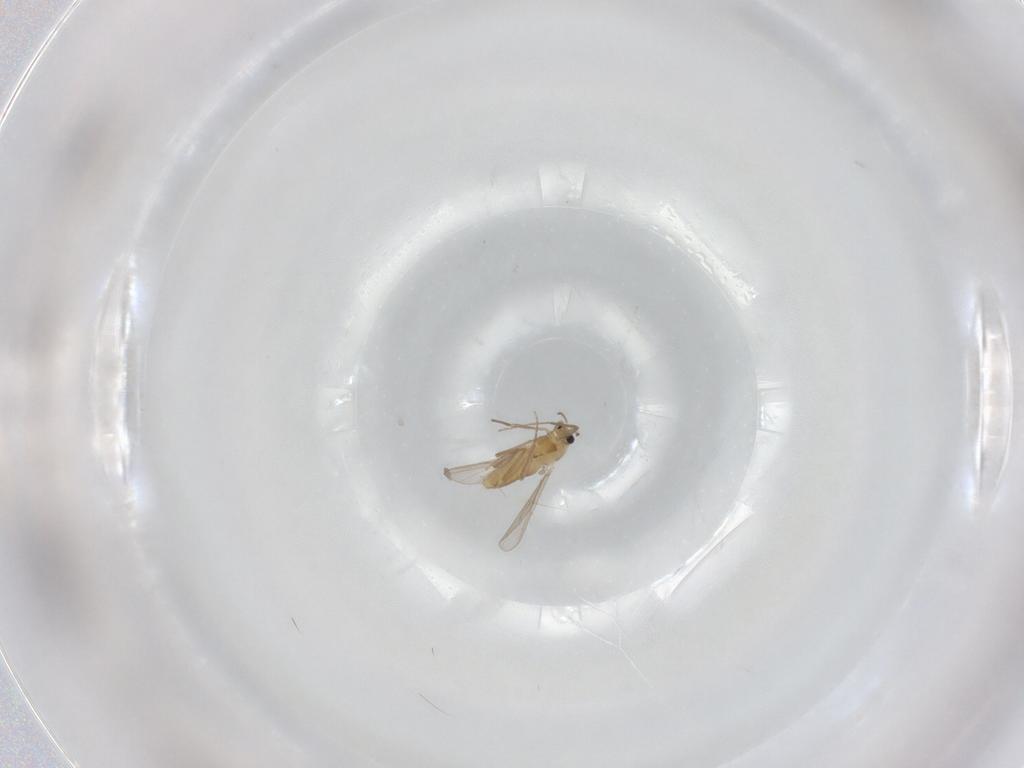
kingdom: Animalia
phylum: Arthropoda
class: Insecta
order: Diptera
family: Chironomidae
